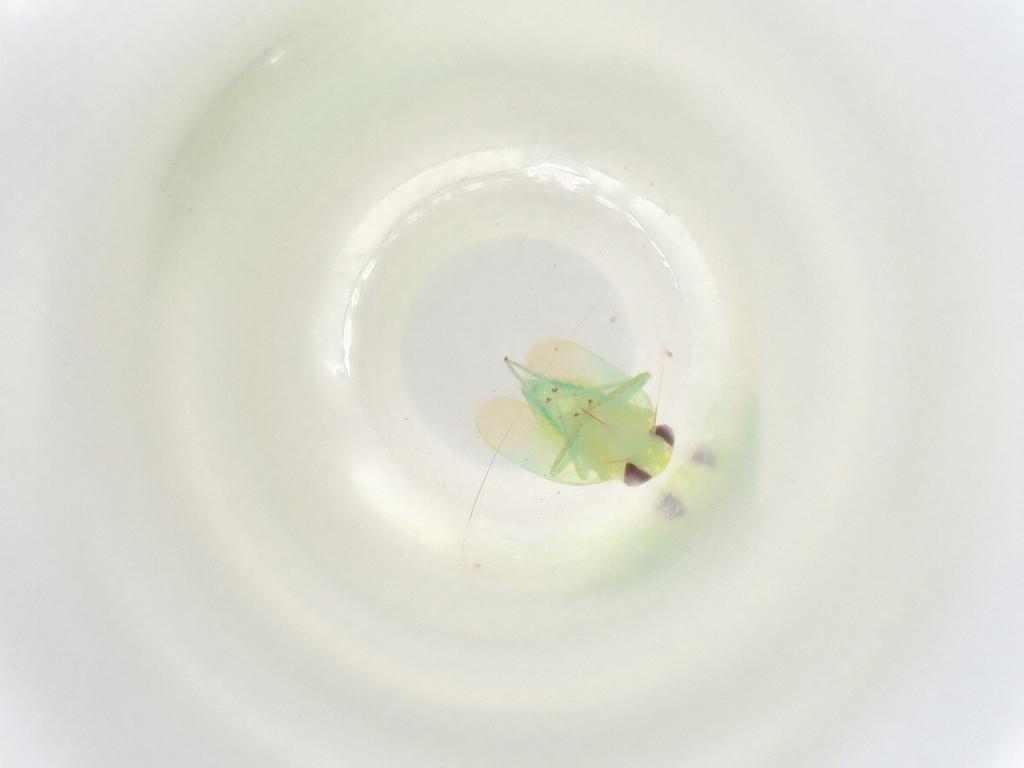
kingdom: Animalia
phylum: Arthropoda
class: Insecta
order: Hemiptera
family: Cicadellidae
